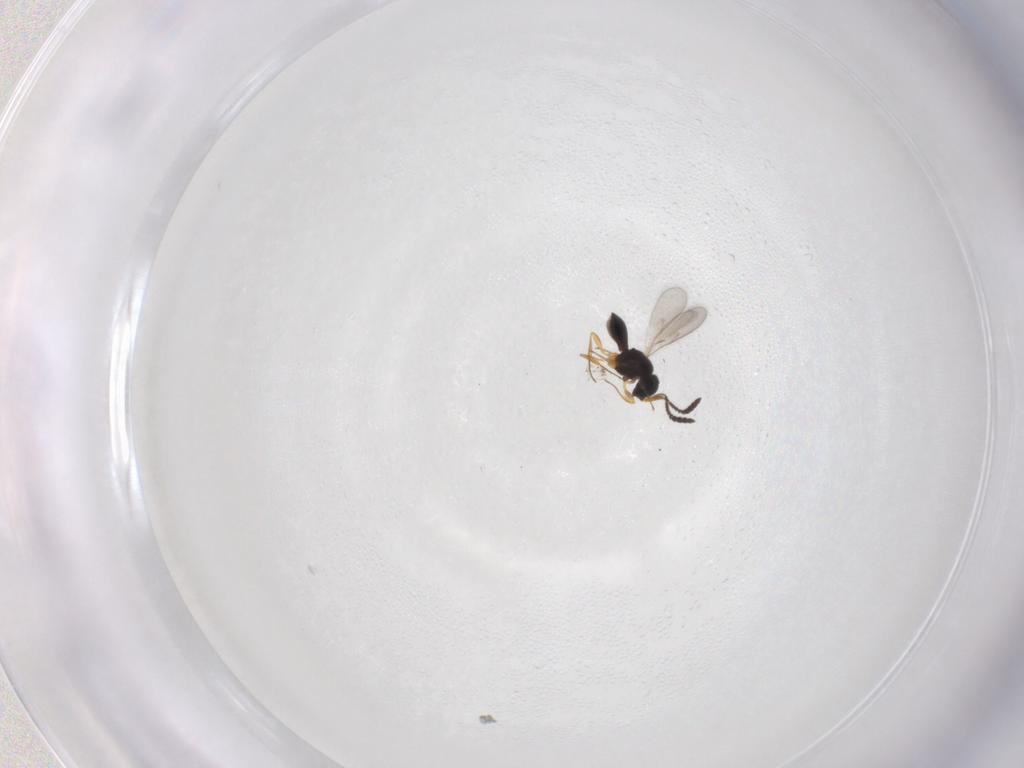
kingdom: Animalia
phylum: Arthropoda
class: Insecta
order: Hymenoptera
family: Scelionidae
